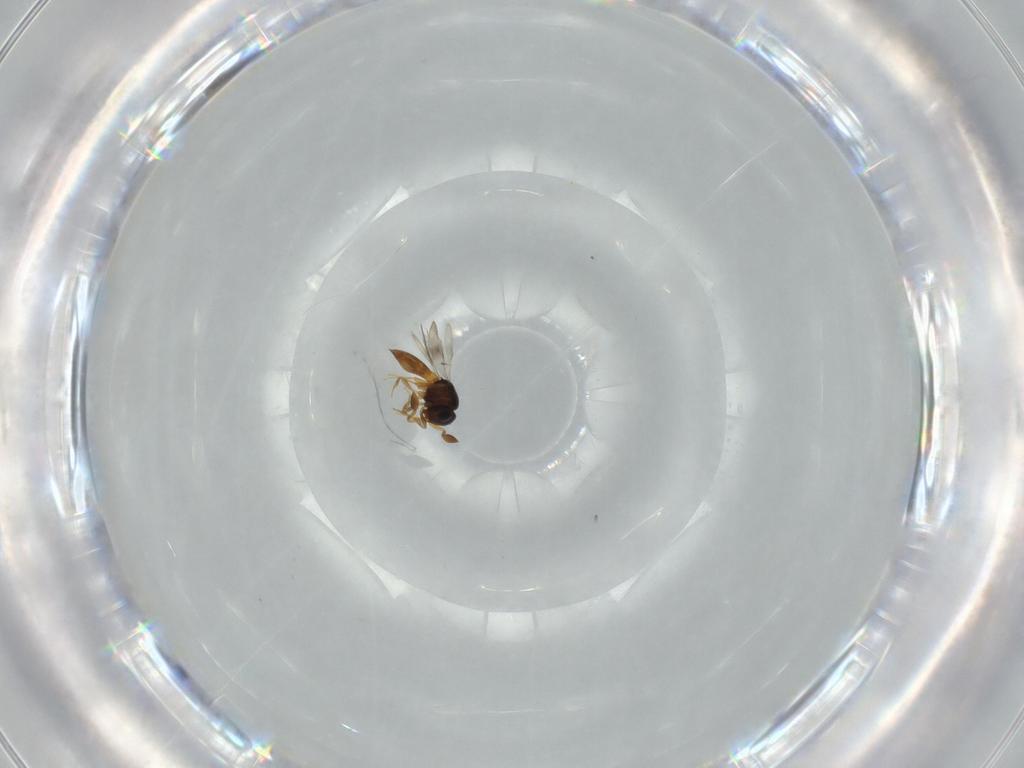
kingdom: Animalia
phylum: Arthropoda
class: Insecta
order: Hymenoptera
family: Scelionidae
